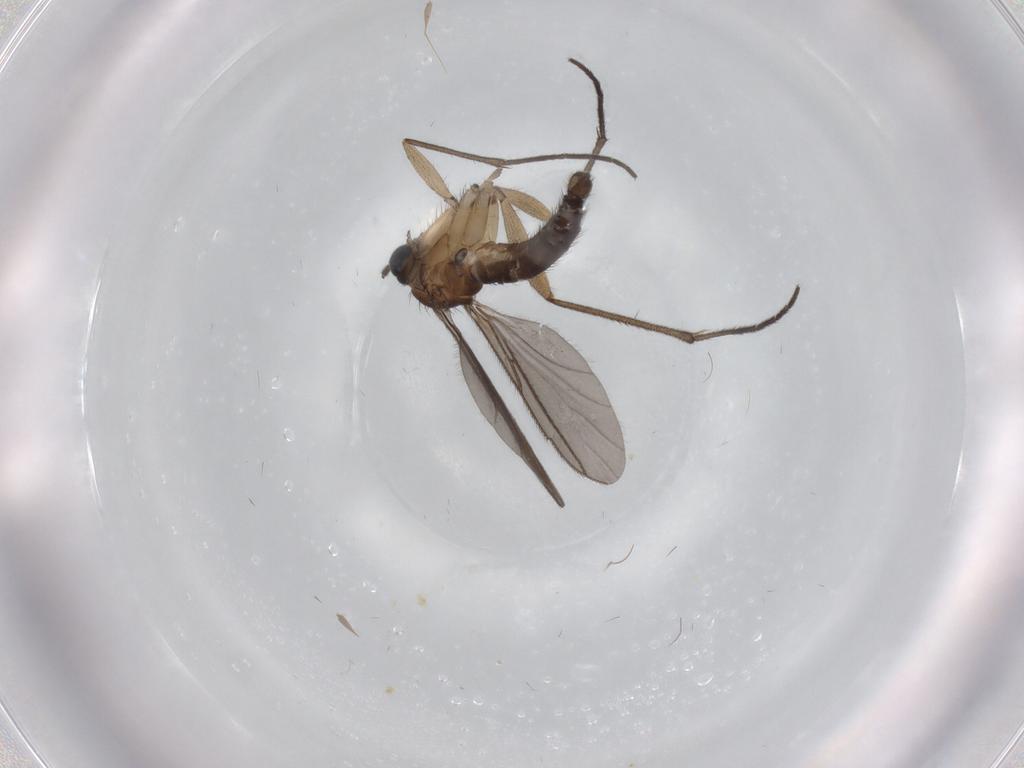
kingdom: Animalia
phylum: Arthropoda
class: Insecta
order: Diptera
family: Sciaridae
